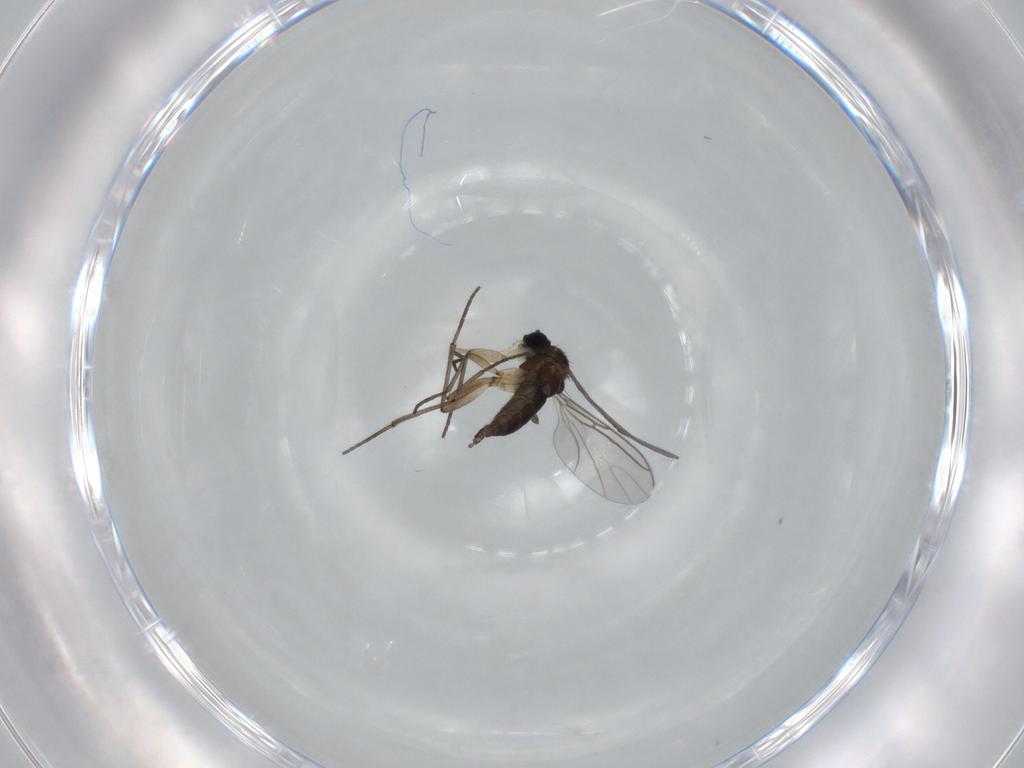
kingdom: Animalia
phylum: Arthropoda
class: Insecta
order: Diptera
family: Sciaridae
